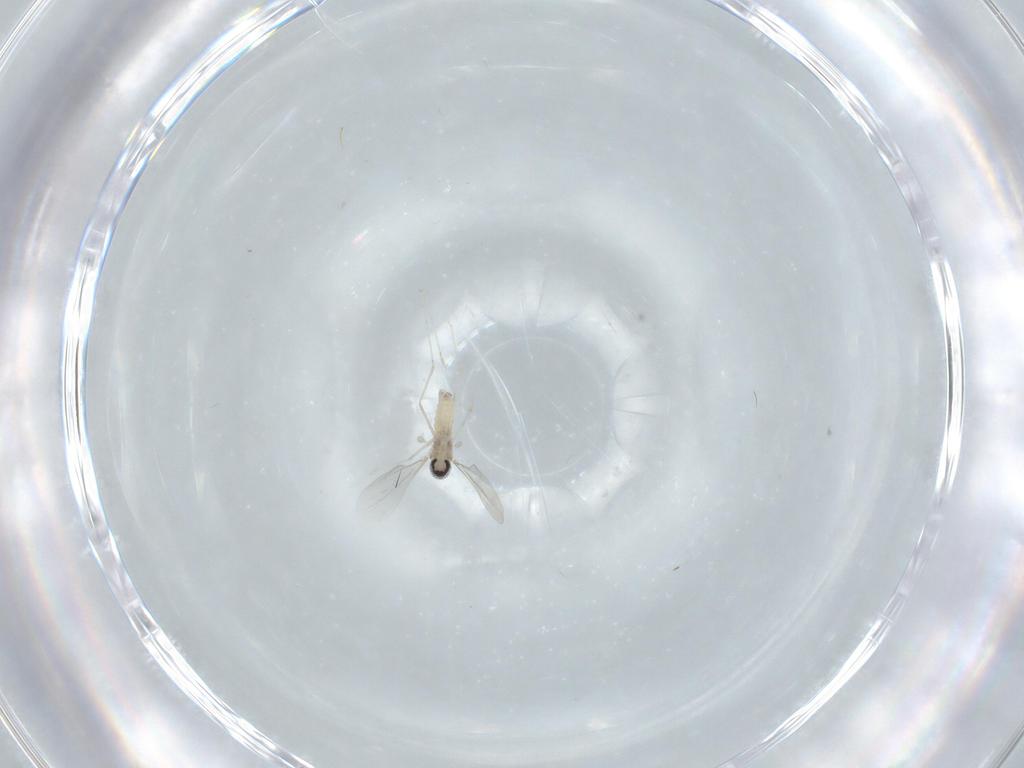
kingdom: Animalia
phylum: Arthropoda
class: Insecta
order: Diptera
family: Cecidomyiidae
